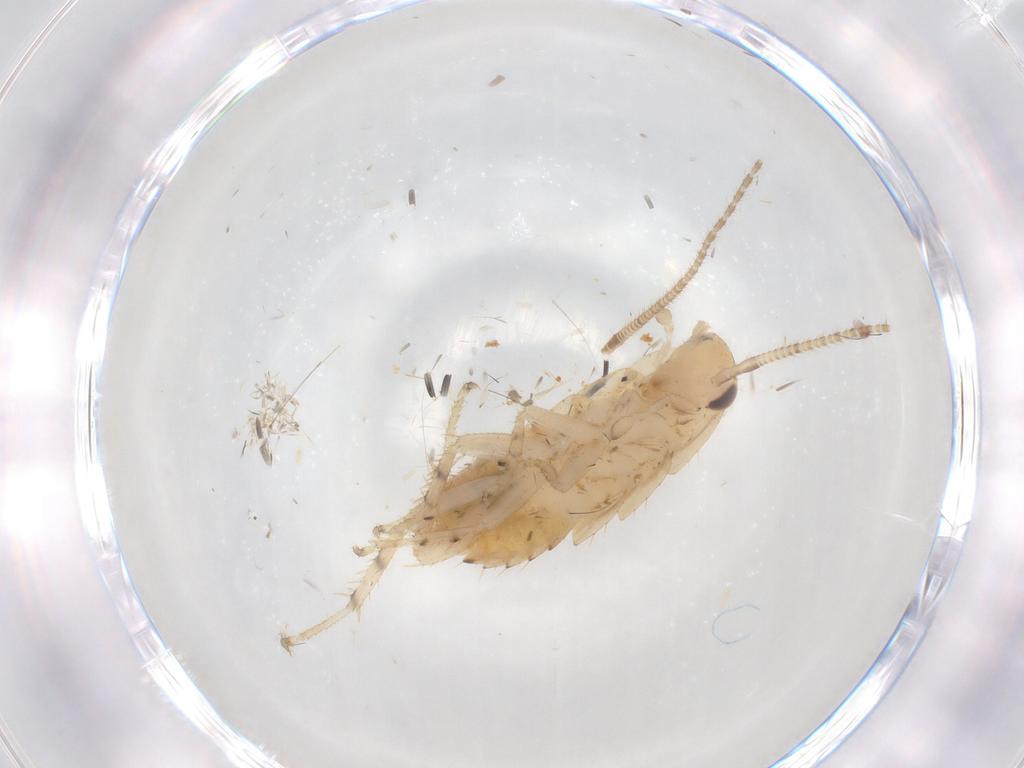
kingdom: Animalia
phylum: Arthropoda
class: Insecta
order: Blattodea
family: Ectobiidae
